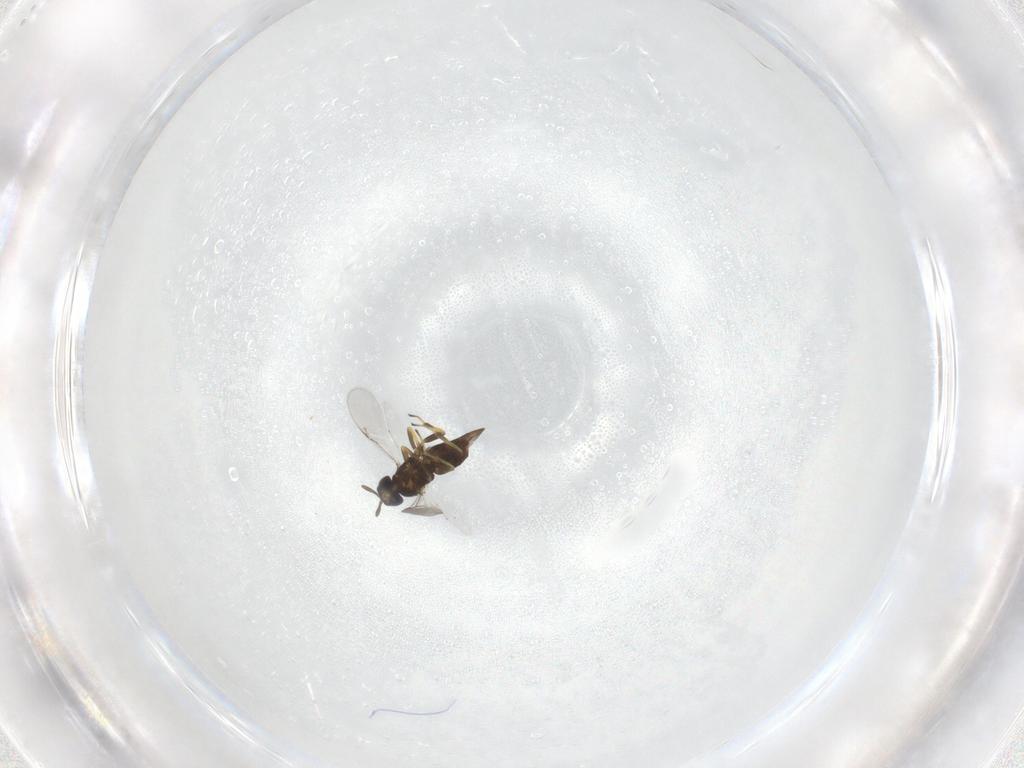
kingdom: Animalia
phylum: Arthropoda
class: Insecta
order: Hymenoptera
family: Encyrtidae
